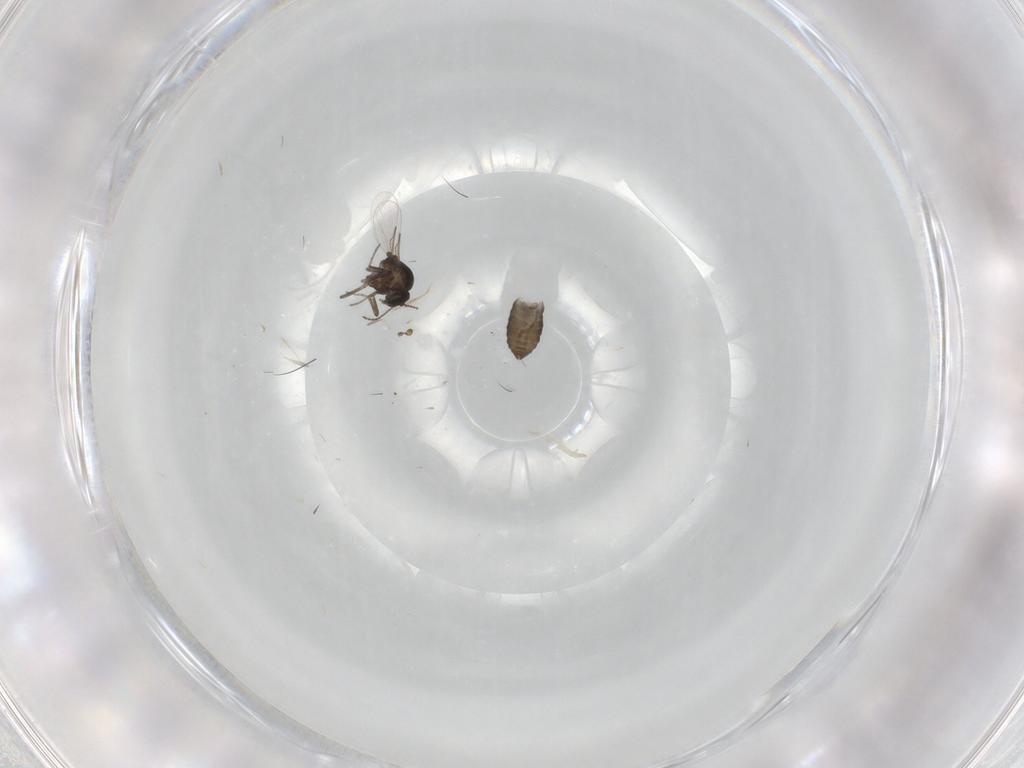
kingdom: Animalia
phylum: Arthropoda
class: Insecta
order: Diptera
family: Ceratopogonidae
